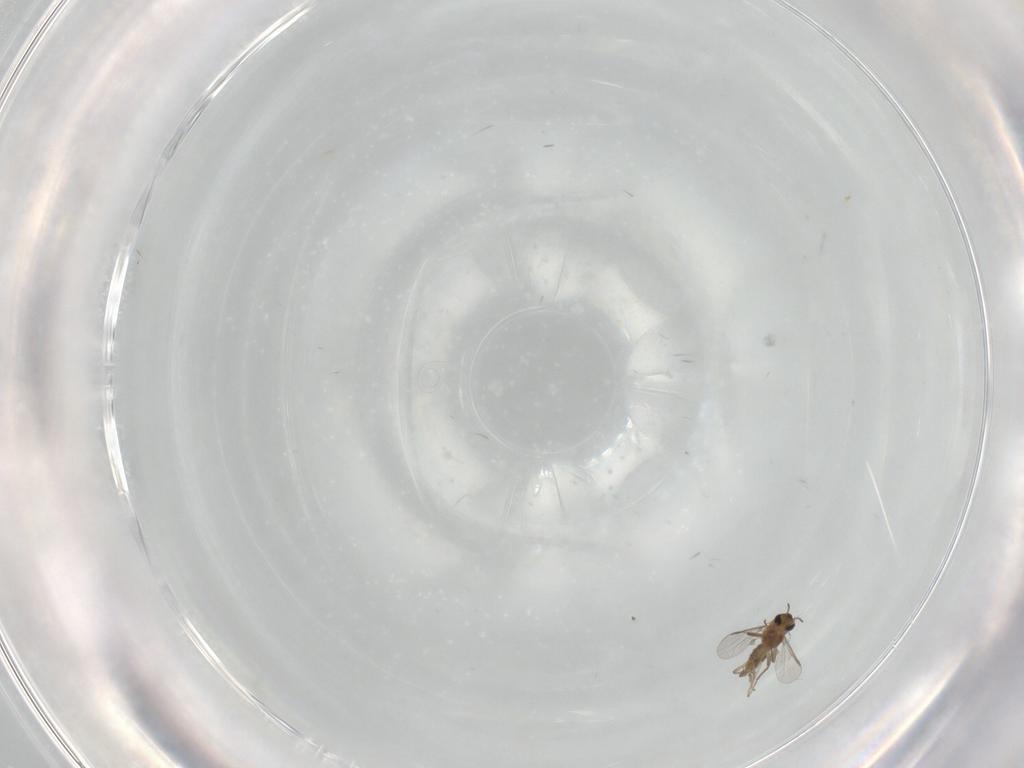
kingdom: Animalia
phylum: Arthropoda
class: Insecta
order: Diptera
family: Chironomidae
